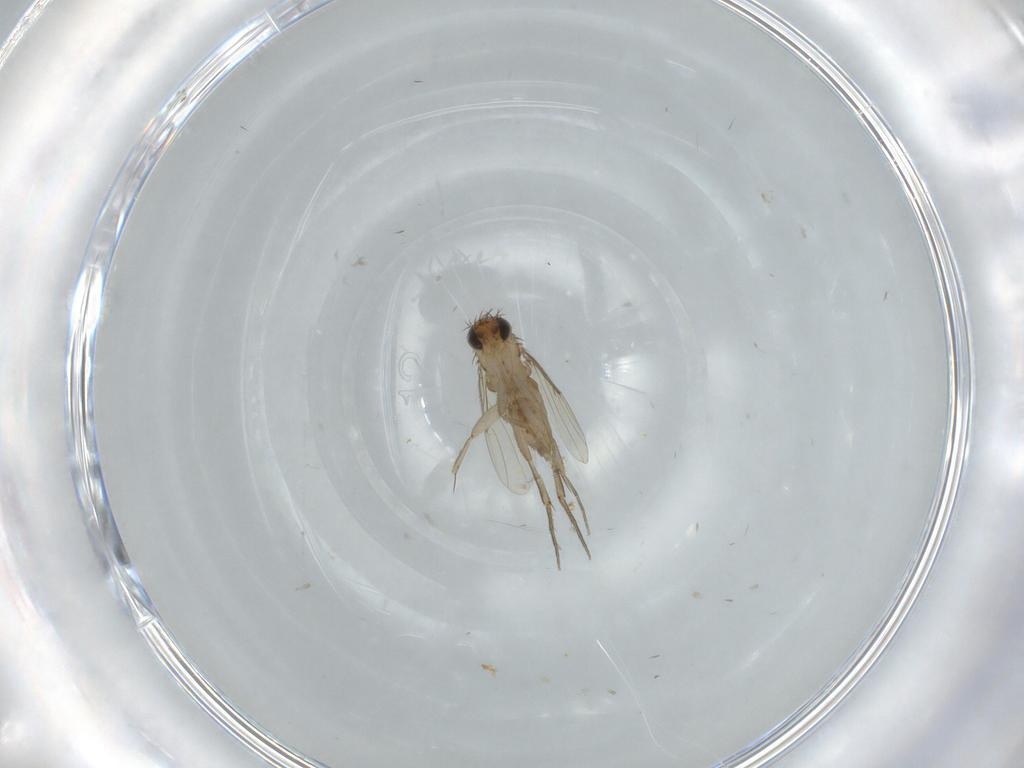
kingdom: Animalia
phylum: Arthropoda
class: Insecta
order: Diptera
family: Phoridae
